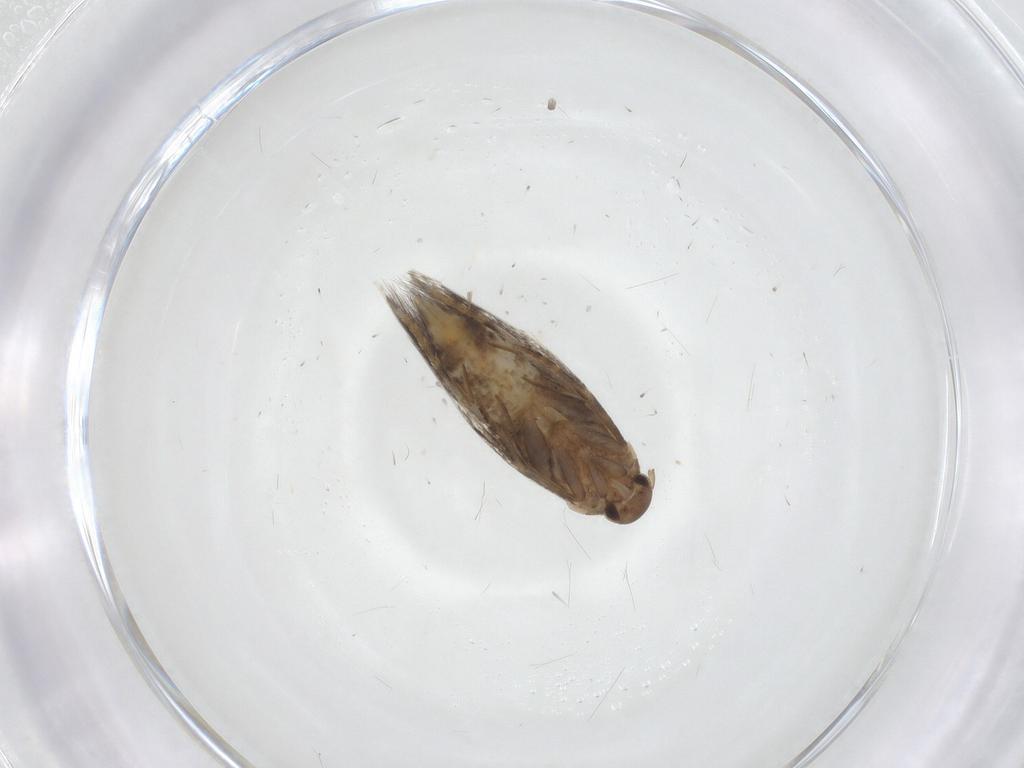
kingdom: Animalia
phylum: Arthropoda
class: Insecta
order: Lepidoptera
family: Elachistidae
